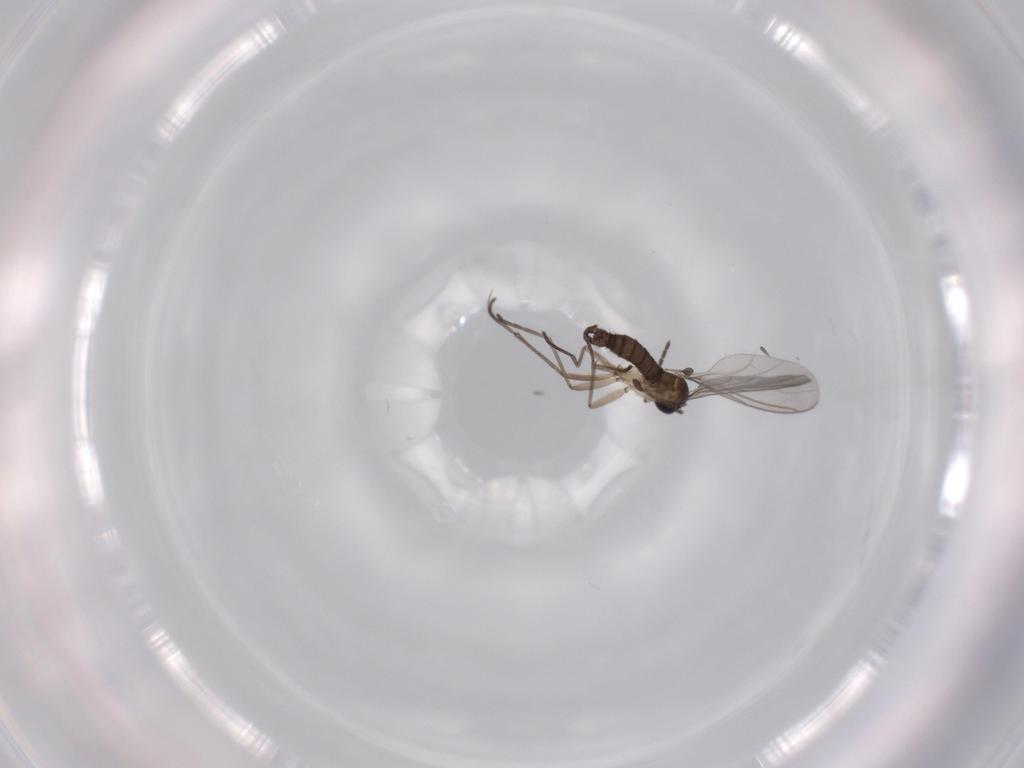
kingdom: Animalia
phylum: Arthropoda
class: Insecta
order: Diptera
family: Sciaridae
